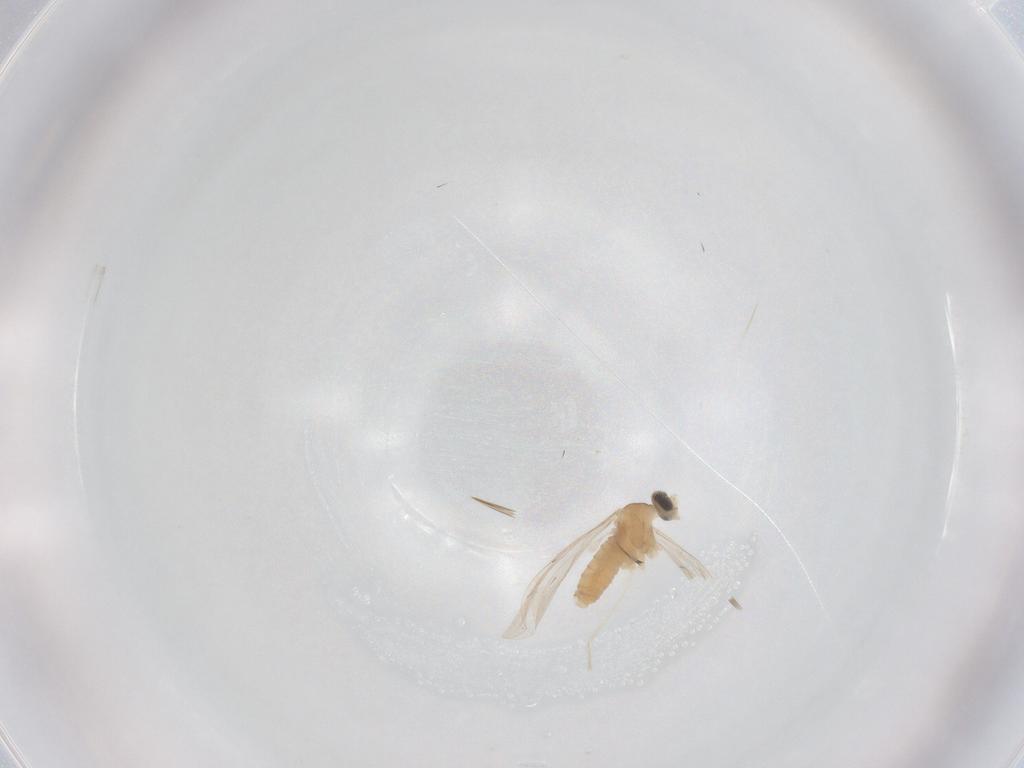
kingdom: Animalia
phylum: Arthropoda
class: Insecta
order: Diptera
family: Cecidomyiidae
